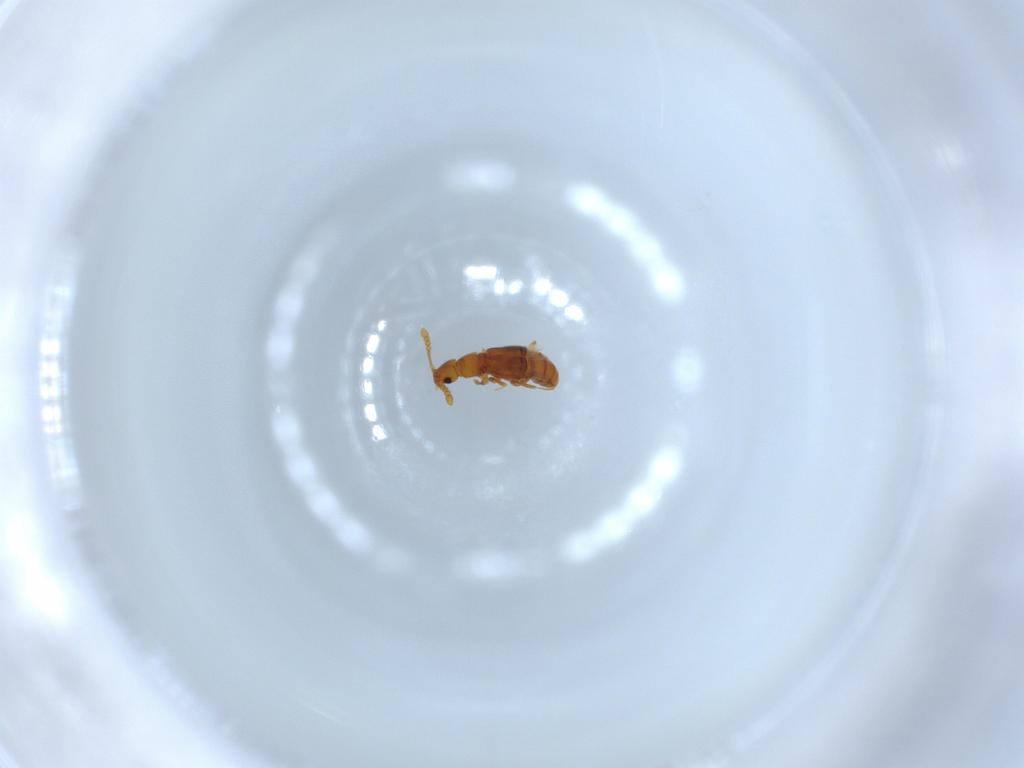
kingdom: Animalia
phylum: Arthropoda
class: Insecta
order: Coleoptera
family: Staphylinidae
